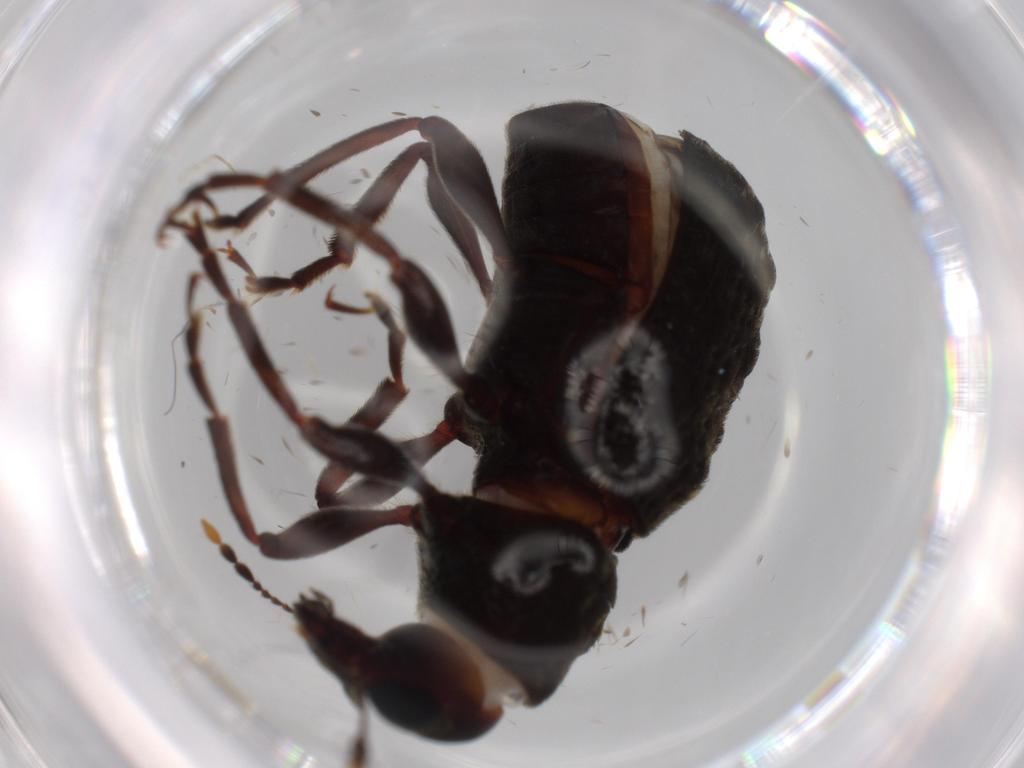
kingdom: Animalia
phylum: Arthropoda
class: Insecta
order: Coleoptera
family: Anthribidae
